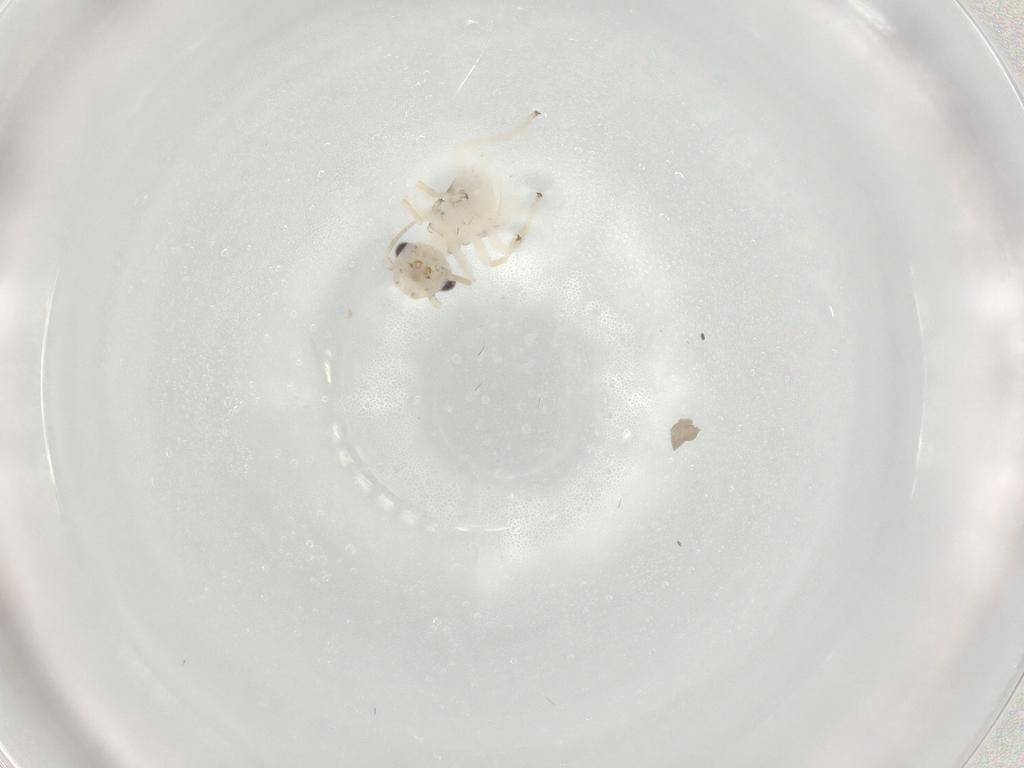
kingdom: Animalia
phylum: Arthropoda
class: Insecta
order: Psocodea
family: Caeciliusidae
